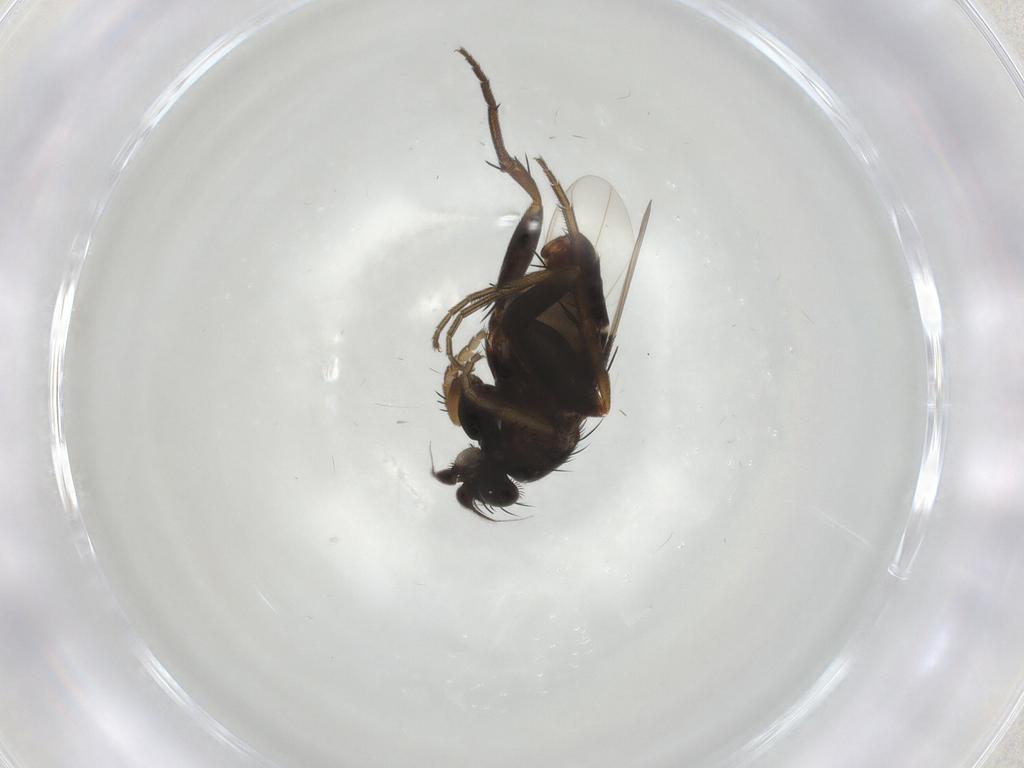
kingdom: Animalia
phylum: Arthropoda
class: Insecta
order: Diptera
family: Phoridae
